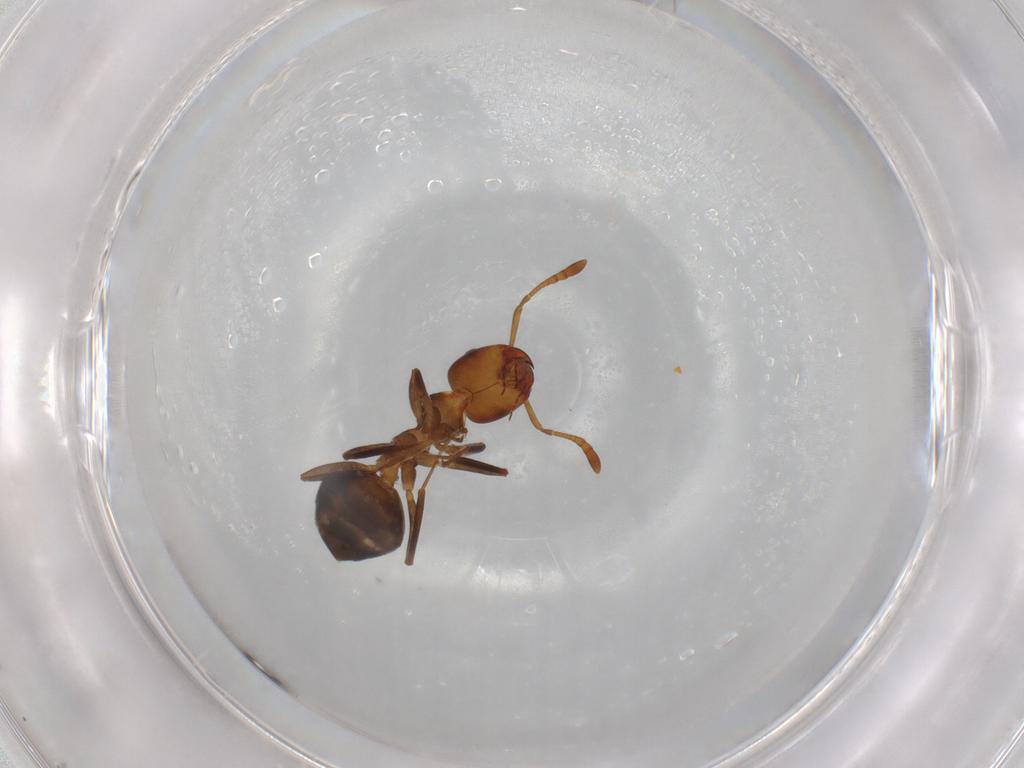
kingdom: Animalia
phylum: Arthropoda
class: Insecta
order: Hymenoptera
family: Formicidae
